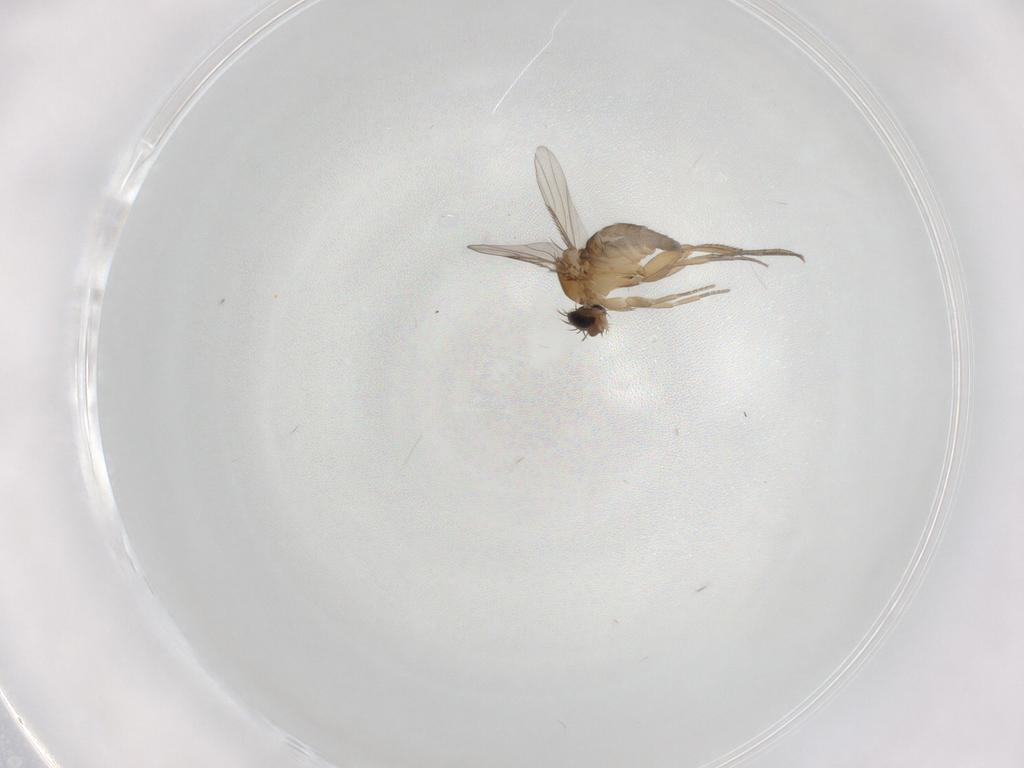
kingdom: Animalia
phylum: Arthropoda
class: Insecta
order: Diptera
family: Phoridae
